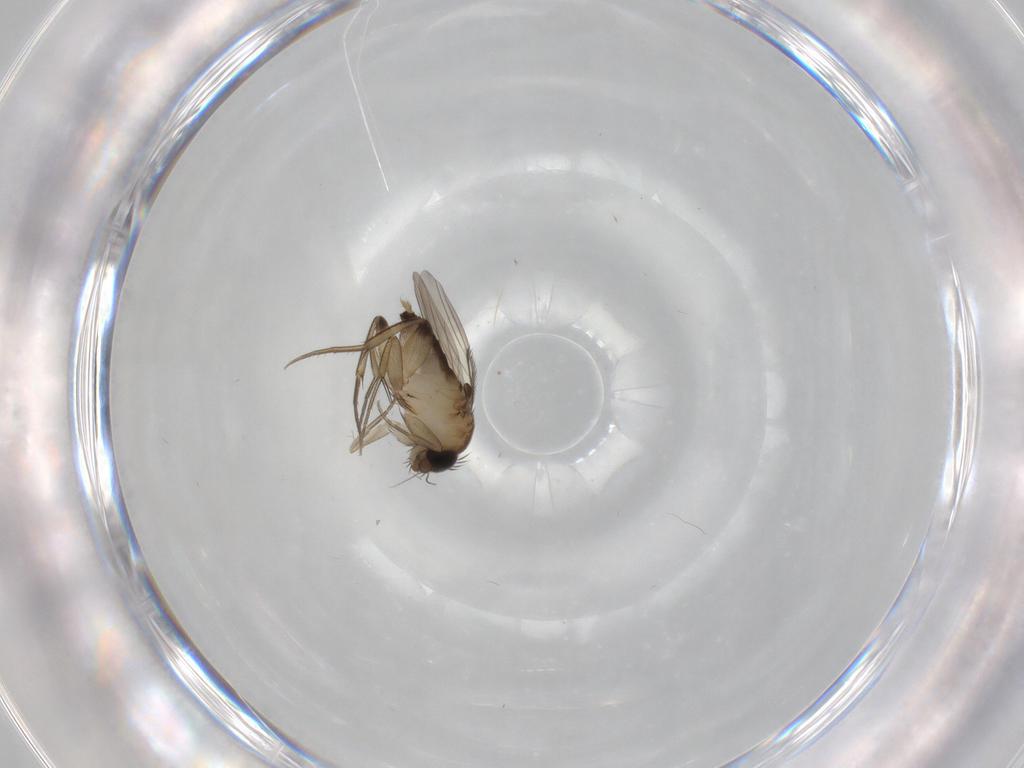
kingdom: Animalia
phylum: Arthropoda
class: Insecta
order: Diptera
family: Phoridae
